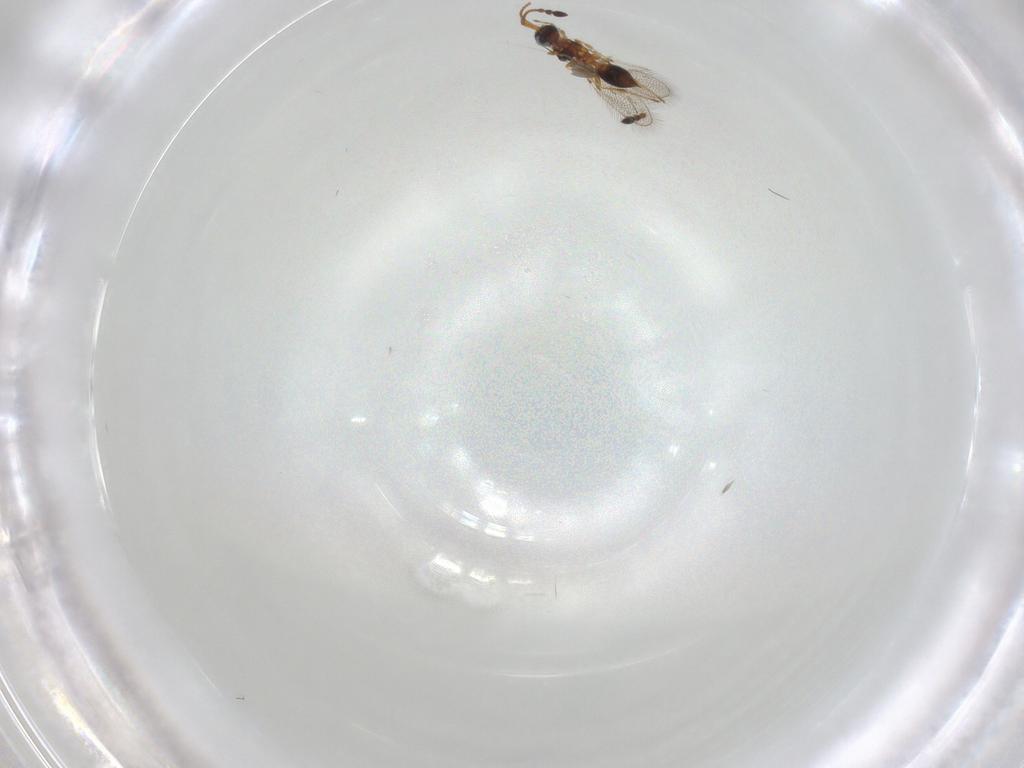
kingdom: Animalia
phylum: Arthropoda
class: Insecta
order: Hymenoptera
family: Diapriidae
